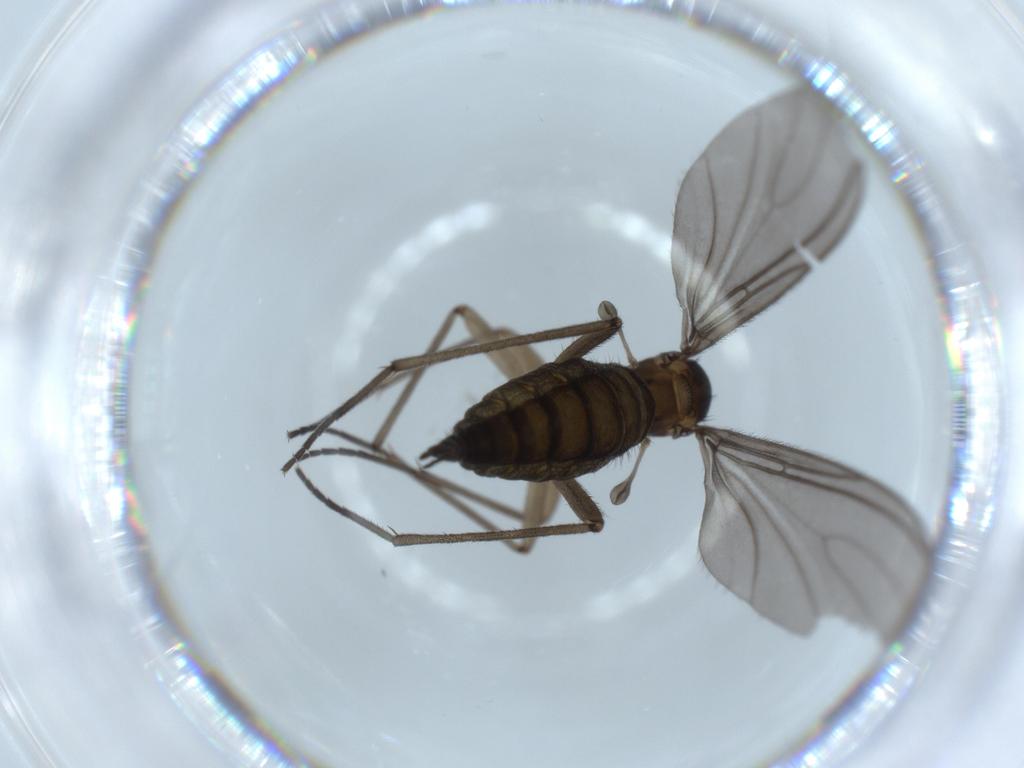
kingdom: Animalia
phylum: Arthropoda
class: Insecta
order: Diptera
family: Sciaridae
